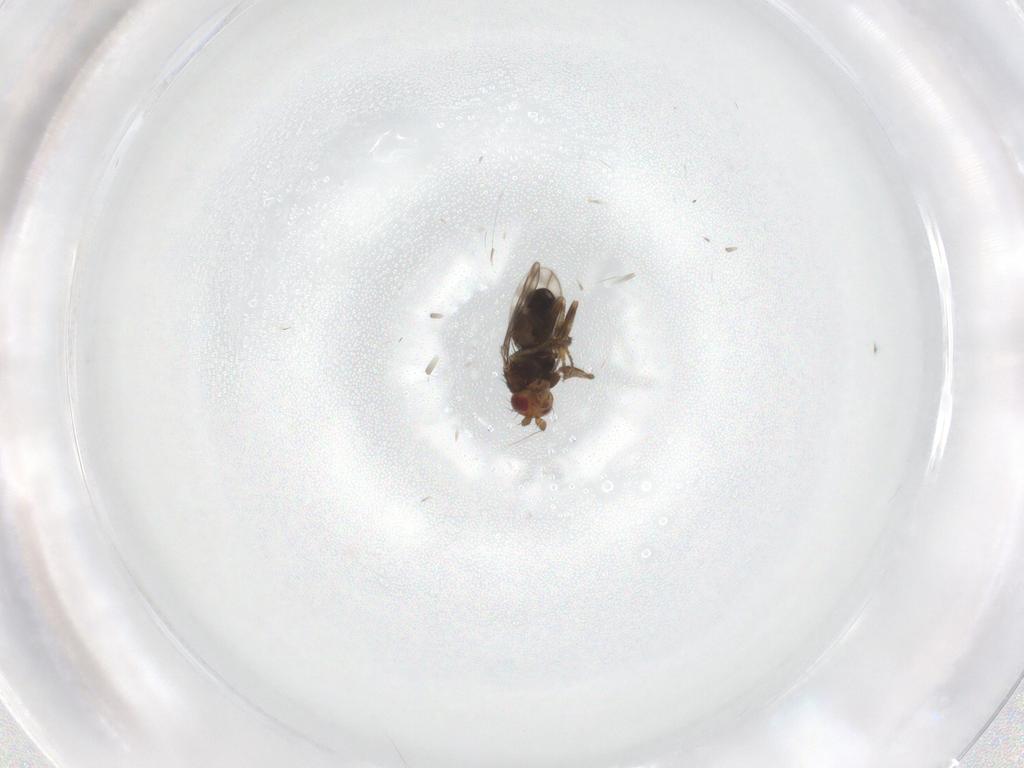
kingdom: Animalia
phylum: Arthropoda
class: Insecta
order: Diptera
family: Sphaeroceridae
